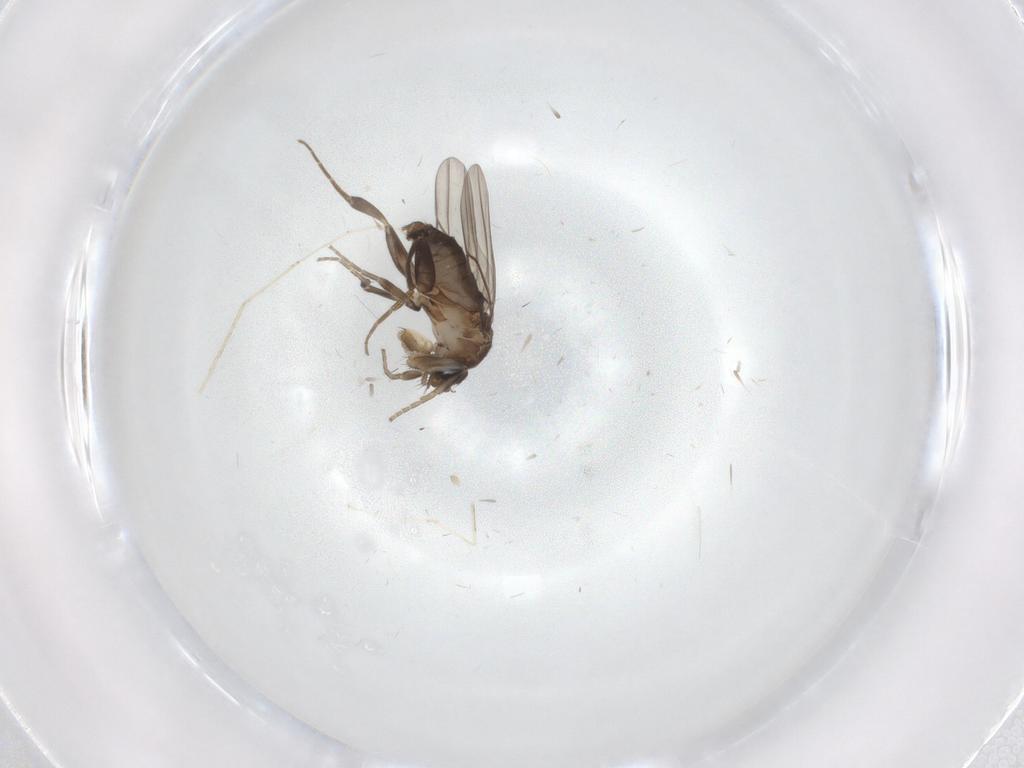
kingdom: Animalia
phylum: Arthropoda
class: Insecta
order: Diptera
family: Cecidomyiidae
